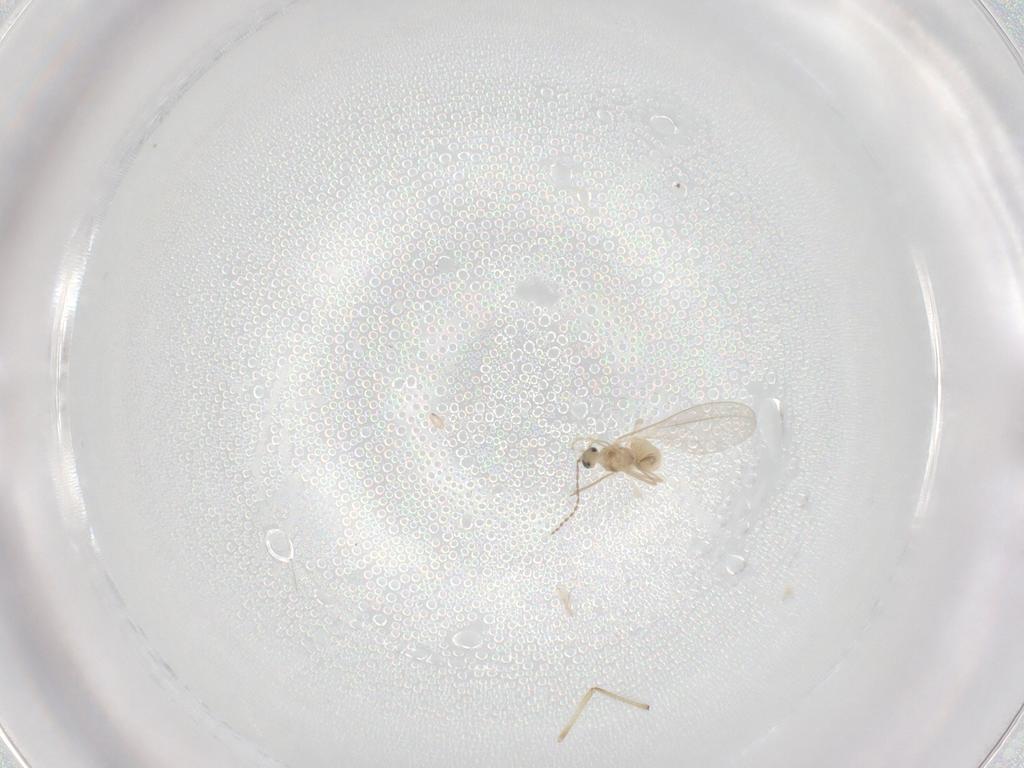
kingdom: Animalia
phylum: Arthropoda
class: Insecta
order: Diptera
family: Cecidomyiidae
